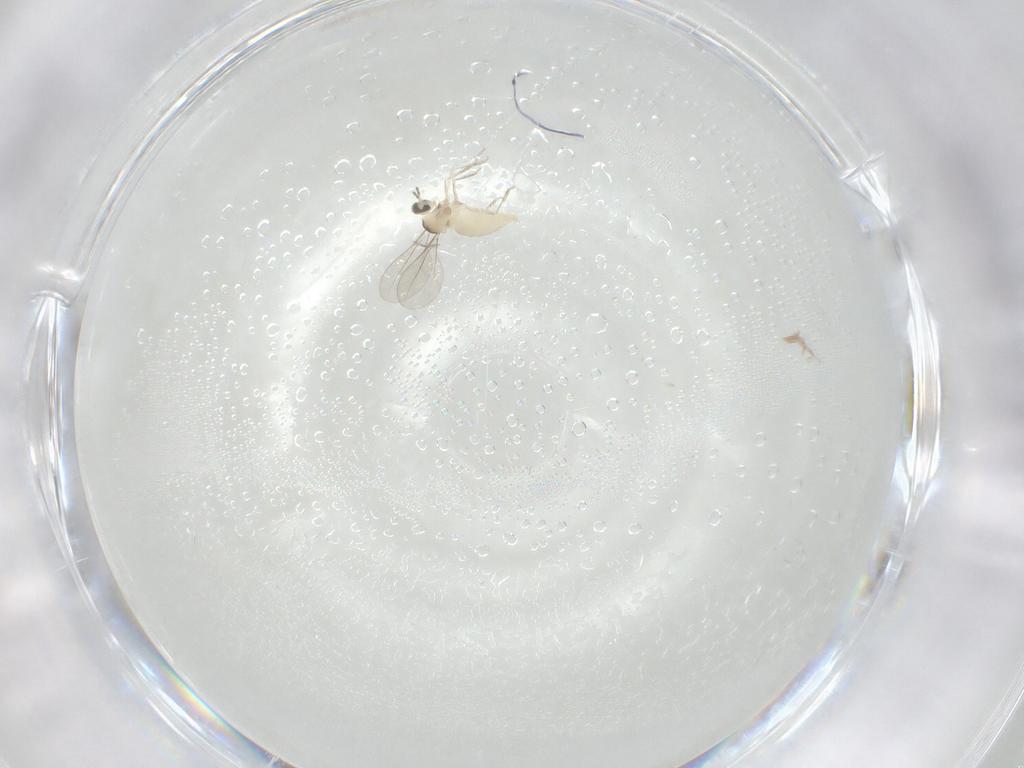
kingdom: Animalia
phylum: Arthropoda
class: Insecta
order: Diptera
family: Cecidomyiidae
